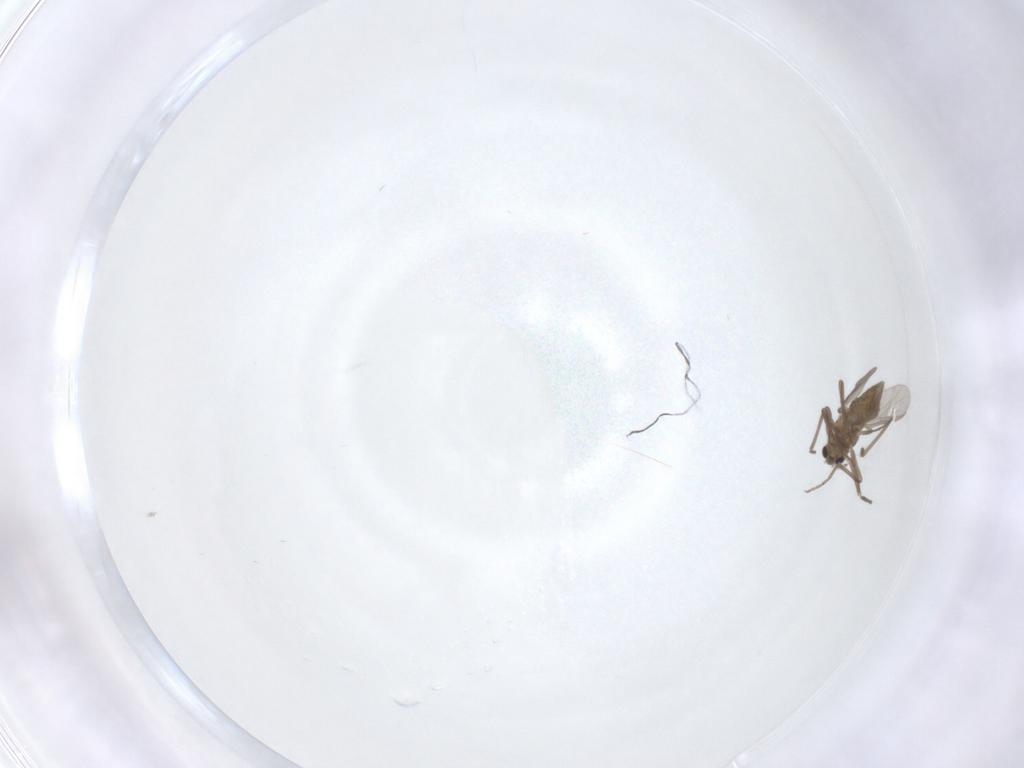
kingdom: Animalia
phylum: Arthropoda
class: Insecta
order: Diptera
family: Chironomidae
